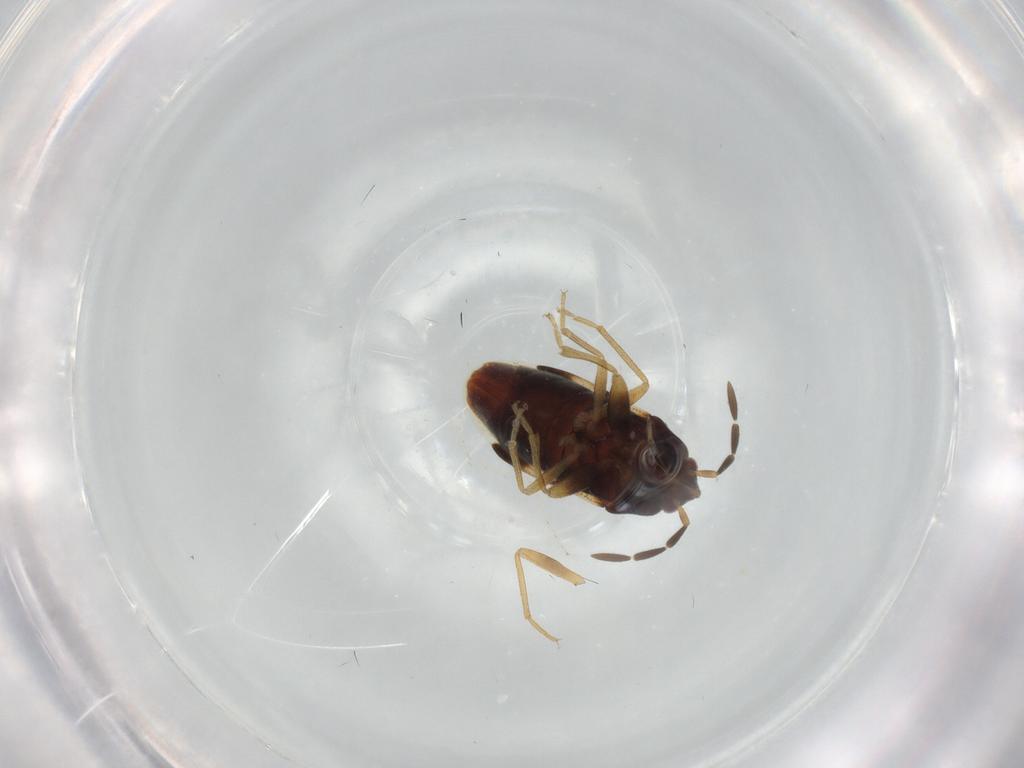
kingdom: Animalia
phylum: Arthropoda
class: Insecta
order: Hemiptera
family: Rhyparochromidae
